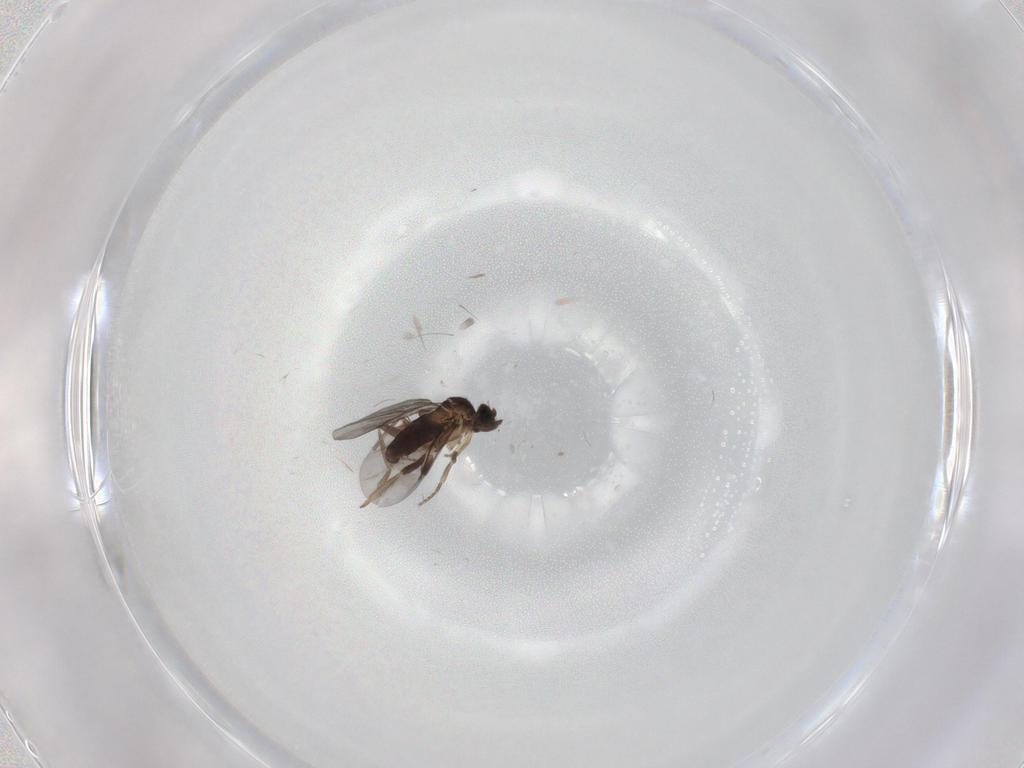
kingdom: Animalia
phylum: Arthropoda
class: Insecta
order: Diptera
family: Phoridae
